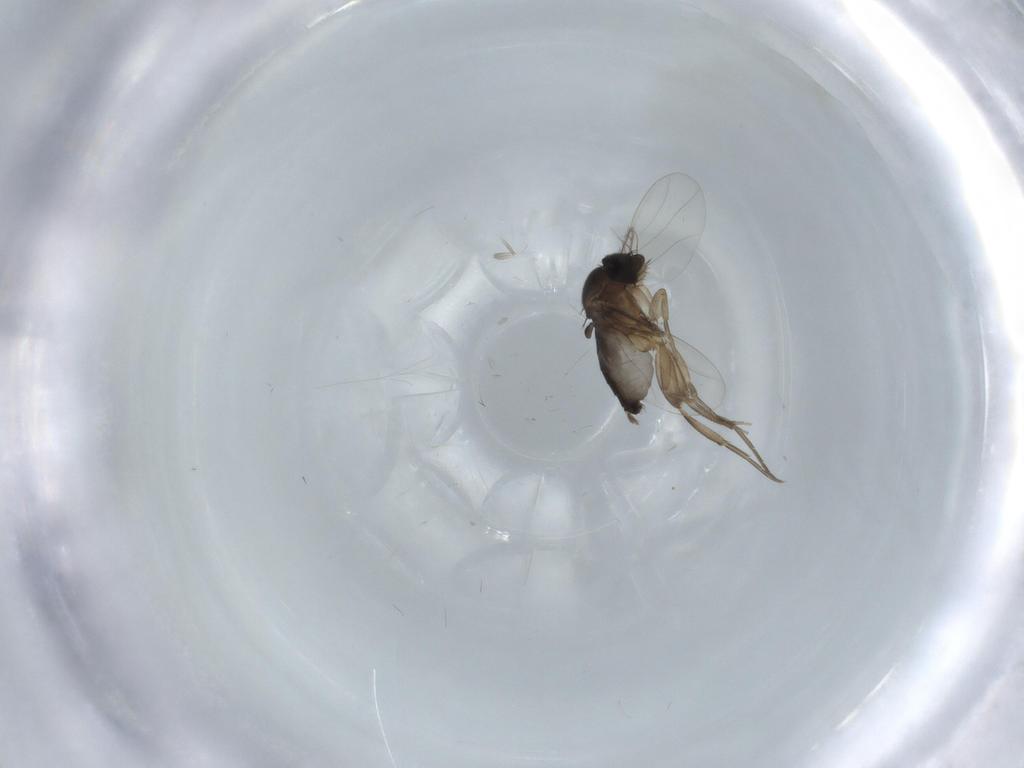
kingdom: Animalia
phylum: Arthropoda
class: Insecta
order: Diptera
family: Phoridae
